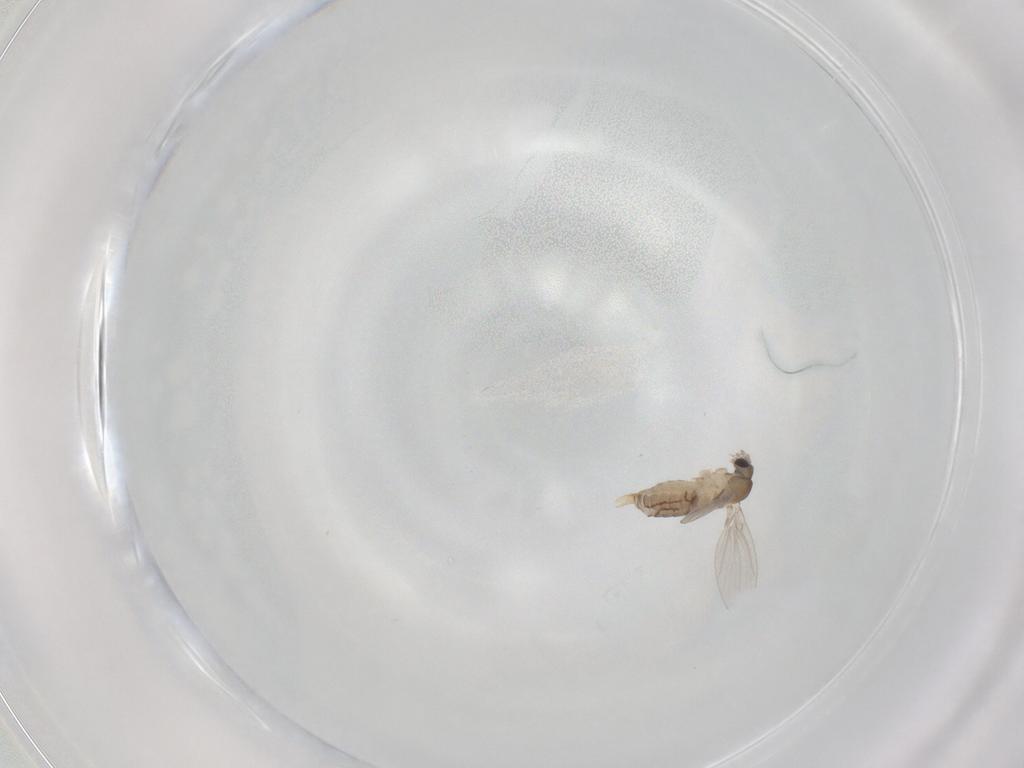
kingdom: Animalia
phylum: Arthropoda
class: Insecta
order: Diptera
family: Psychodidae
